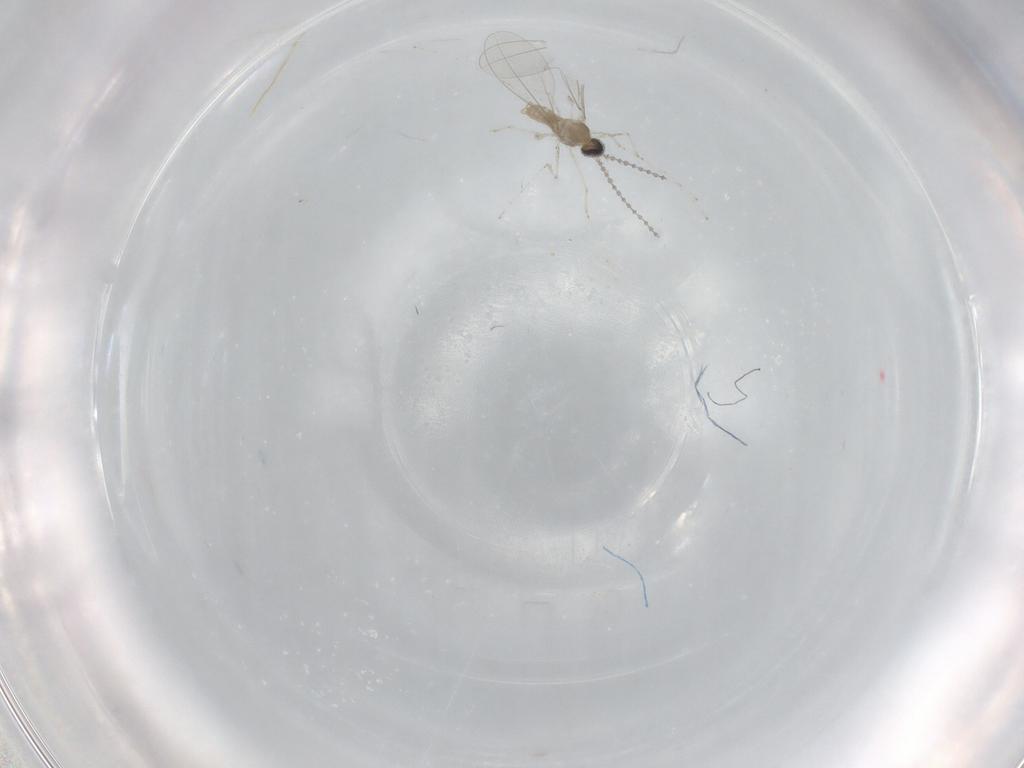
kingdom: Animalia
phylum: Arthropoda
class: Insecta
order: Diptera
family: Cecidomyiidae
